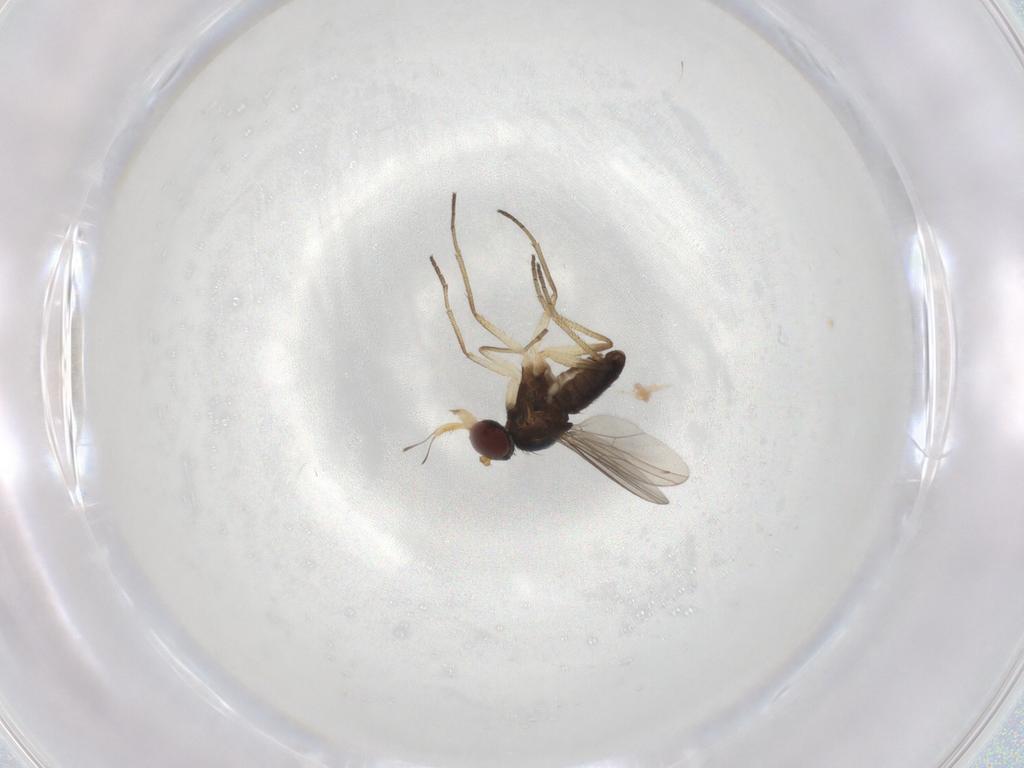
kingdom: Animalia
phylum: Arthropoda
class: Insecta
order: Diptera
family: Dolichopodidae
